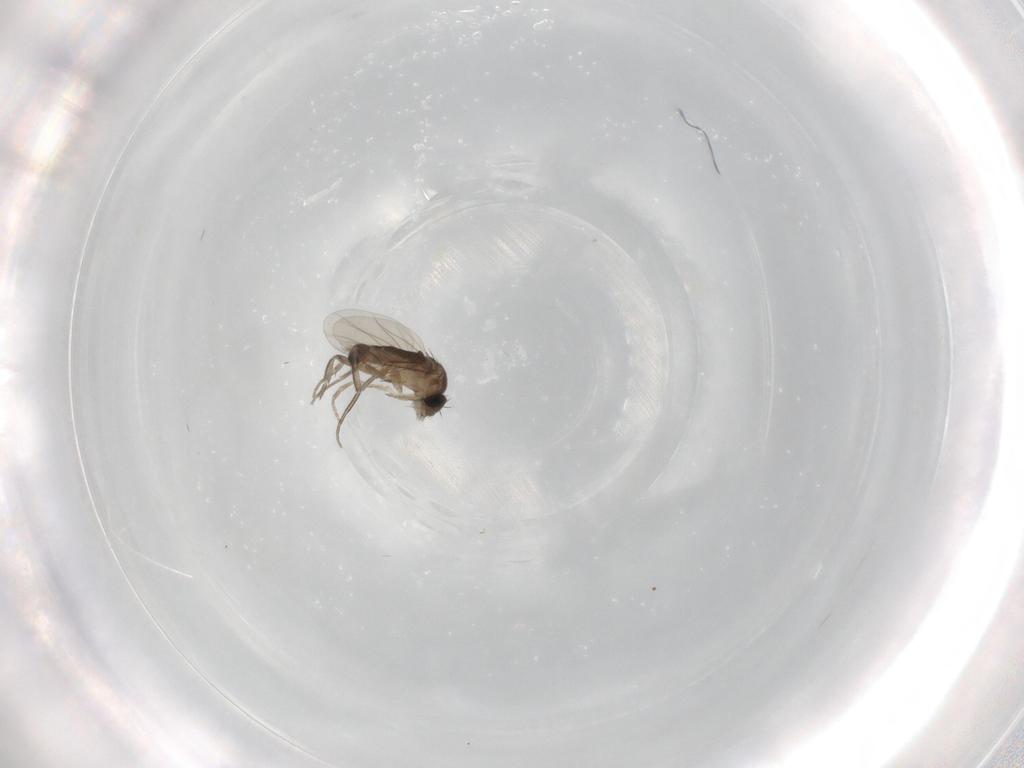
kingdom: Animalia
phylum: Arthropoda
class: Insecta
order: Diptera
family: Phoridae
